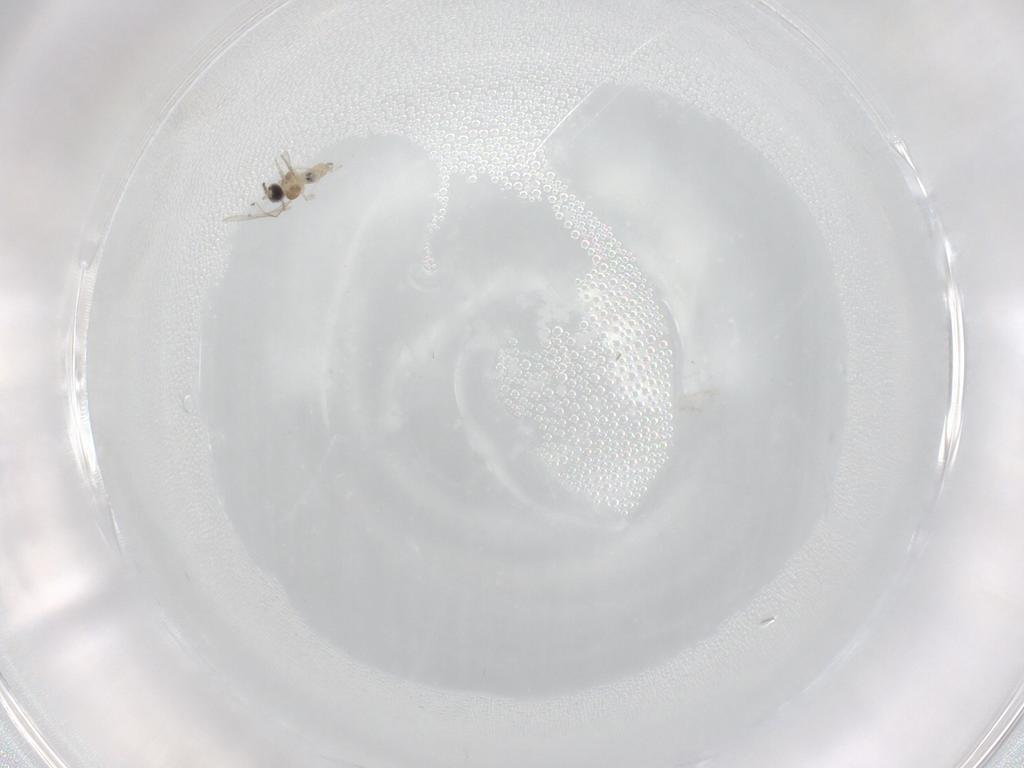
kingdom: Animalia
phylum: Arthropoda
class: Insecta
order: Diptera
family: Cecidomyiidae
